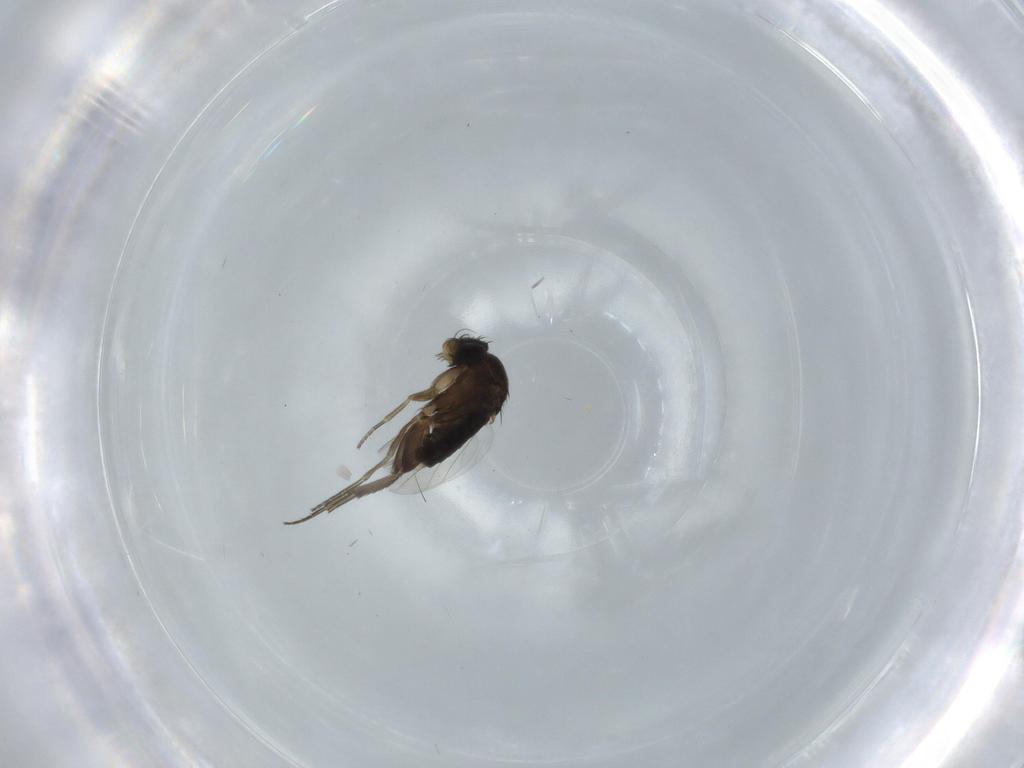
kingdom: Animalia
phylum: Arthropoda
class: Insecta
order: Diptera
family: Phoridae
